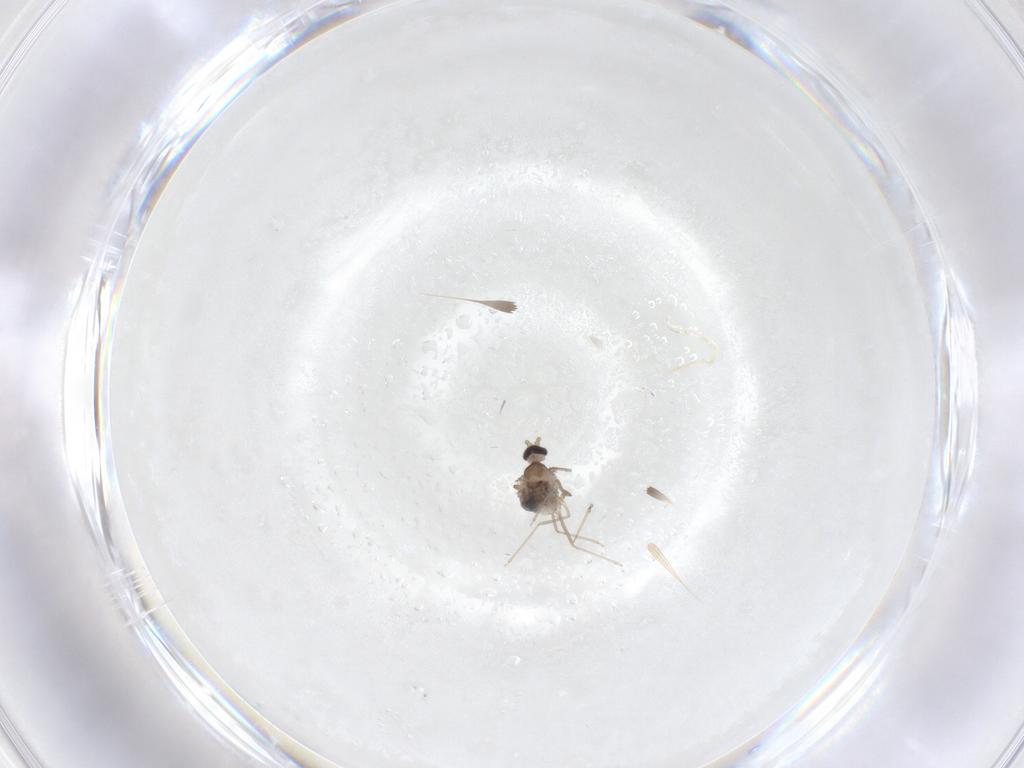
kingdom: Animalia
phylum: Arthropoda
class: Insecta
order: Diptera
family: Chironomidae
